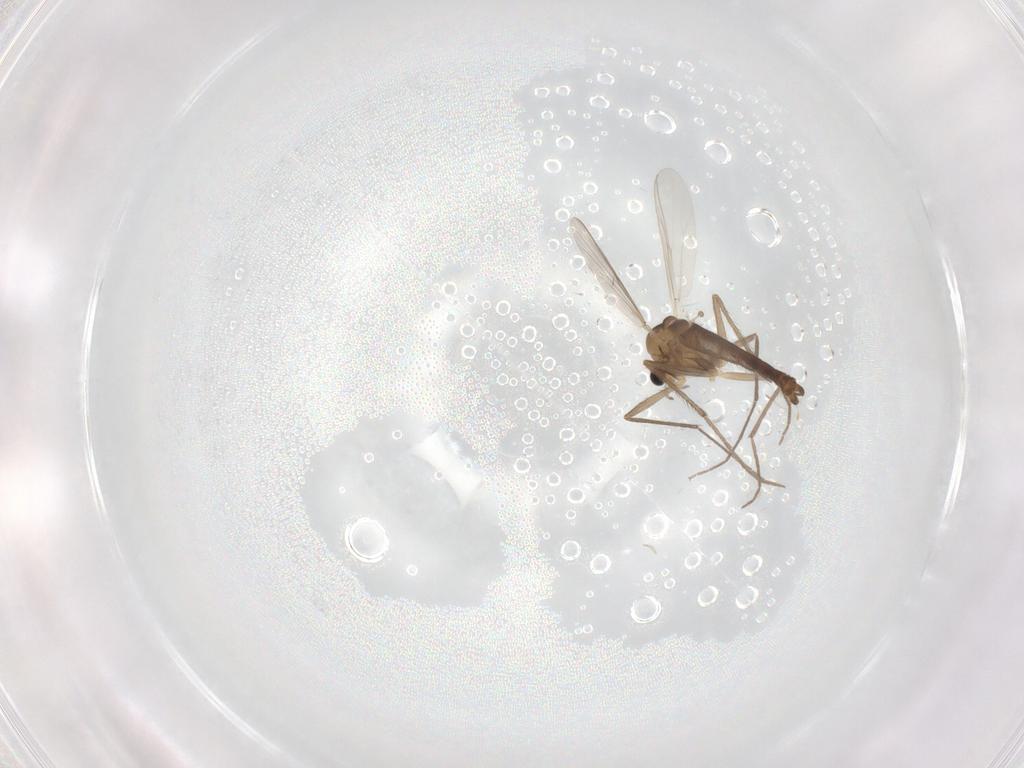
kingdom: Animalia
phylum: Arthropoda
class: Insecta
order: Diptera
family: Chironomidae
